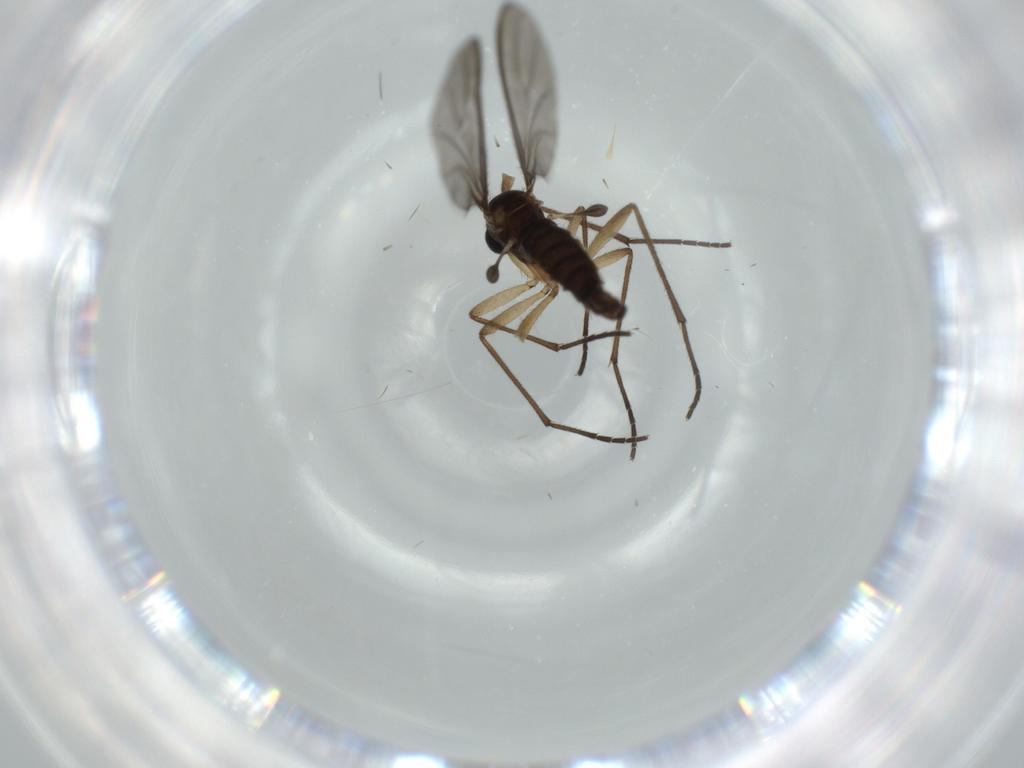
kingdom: Animalia
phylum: Arthropoda
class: Insecta
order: Diptera
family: Sciaridae
